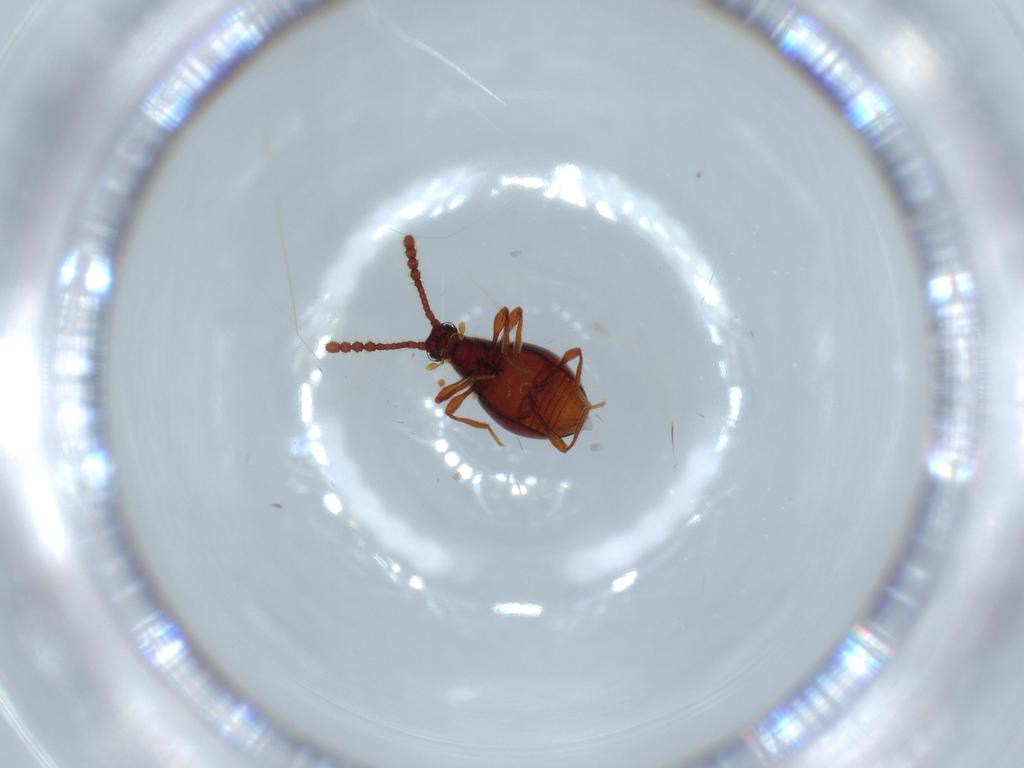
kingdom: Animalia
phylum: Arthropoda
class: Insecta
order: Coleoptera
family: Staphylinidae
